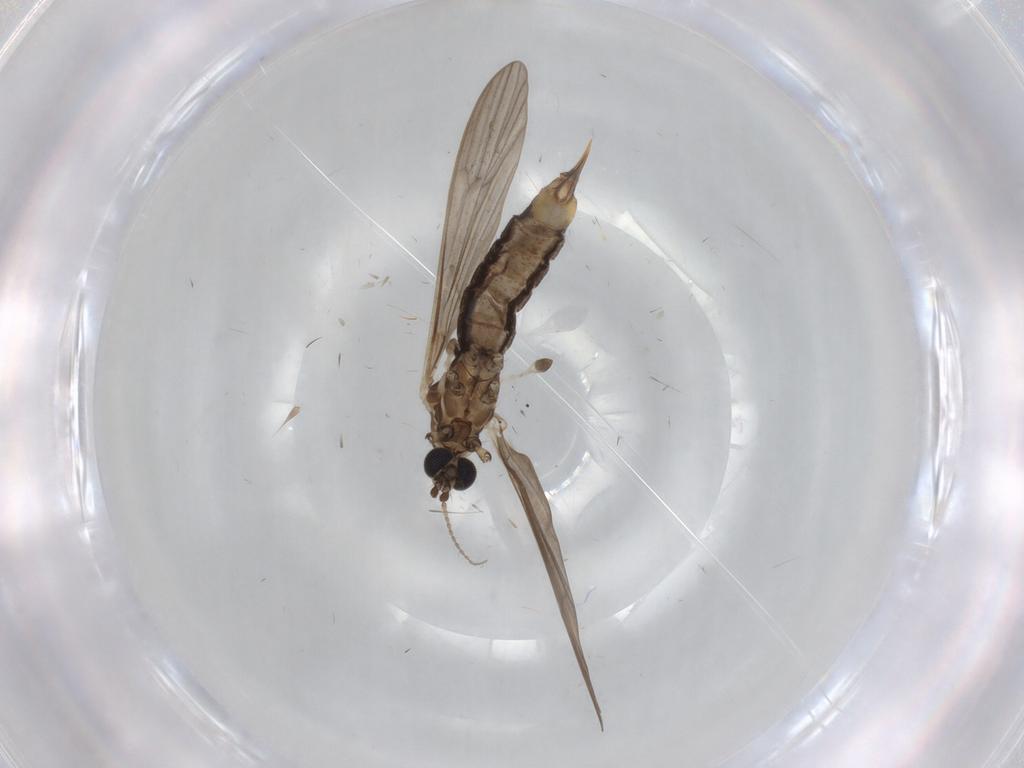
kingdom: Animalia
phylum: Arthropoda
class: Insecta
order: Diptera
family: Limoniidae
